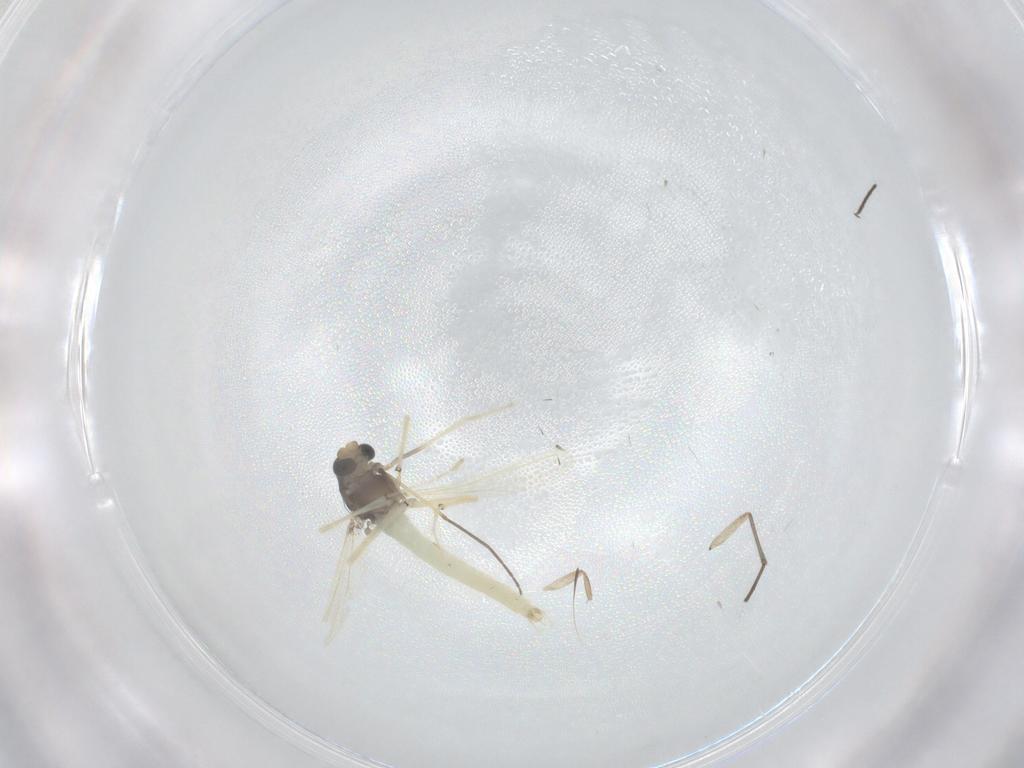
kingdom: Animalia
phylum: Arthropoda
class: Insecta
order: Diptera
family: Chironomidae
